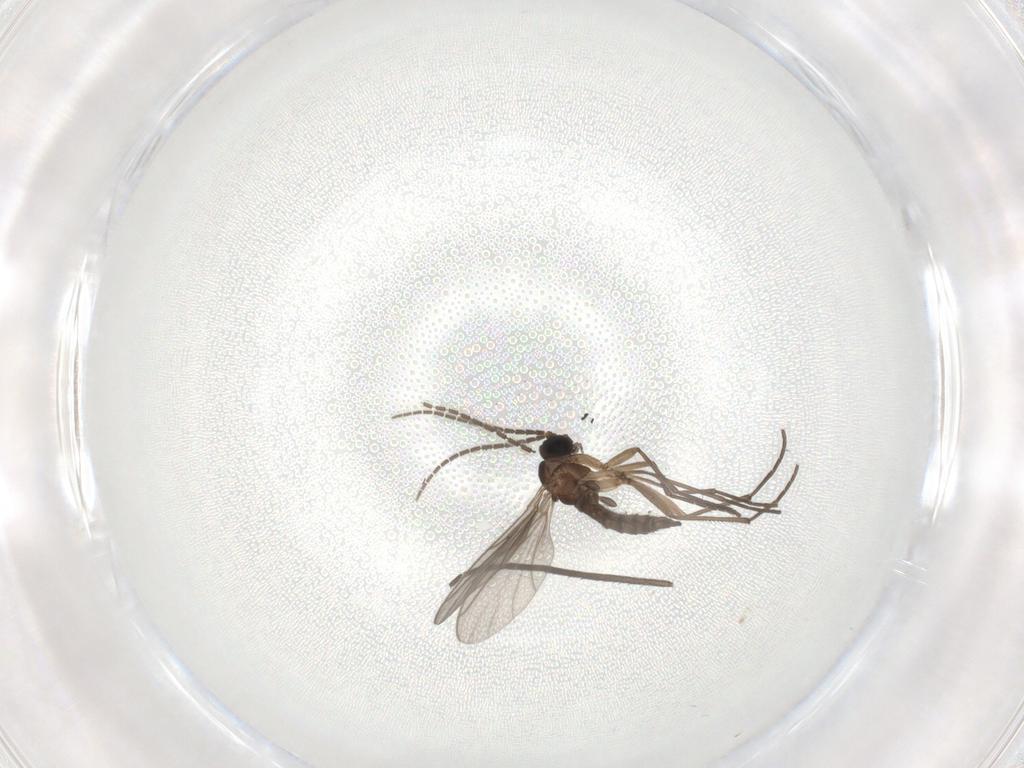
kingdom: Animalia
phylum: Arthropoda
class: Insecta
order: Diptera
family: Sciaridae
